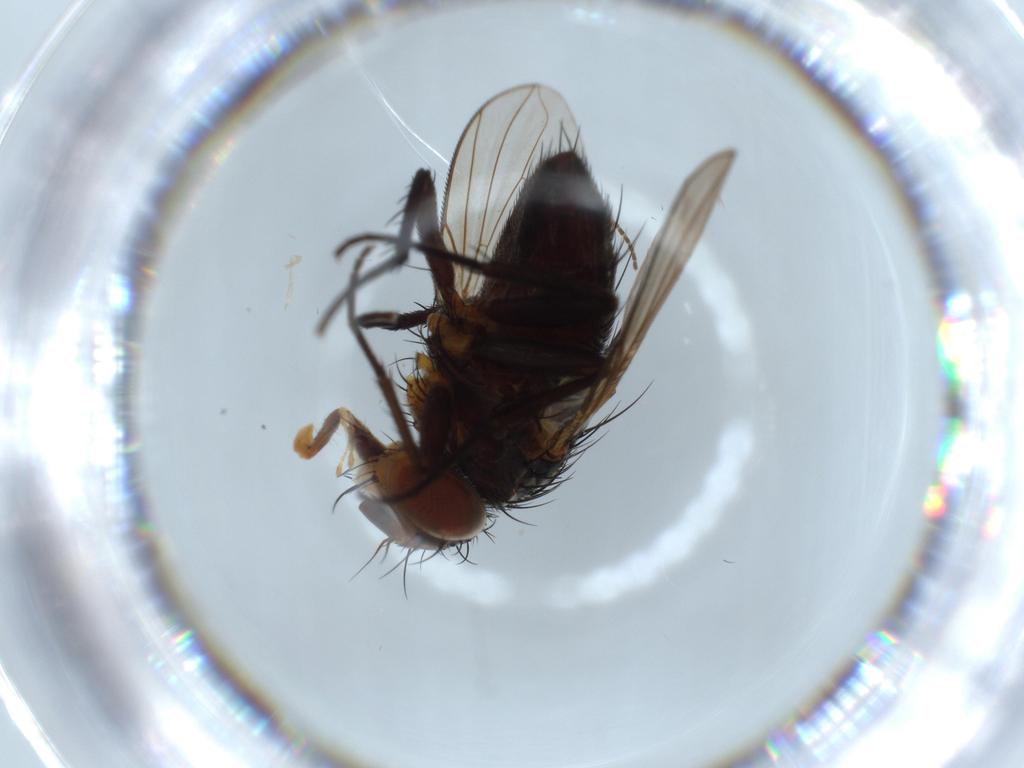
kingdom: Animalia
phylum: Arthropoda
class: Insecta
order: Diptera
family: Tachinidae
